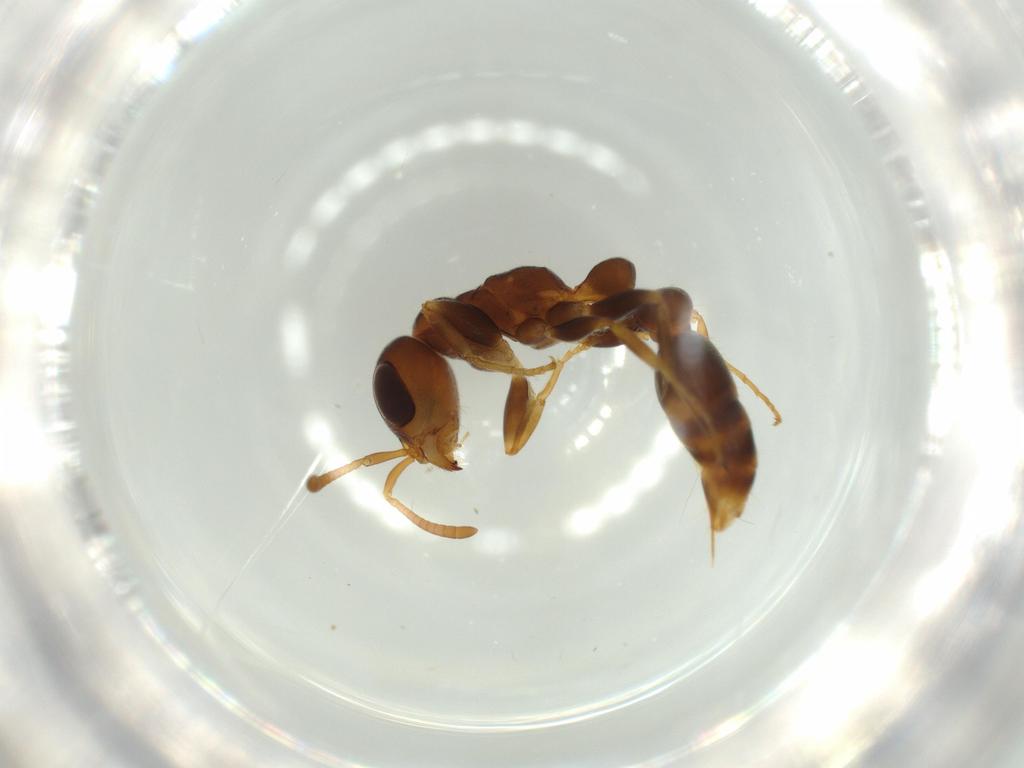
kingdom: Animalia
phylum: Arthropoda
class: Insecta
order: Hymenoptera
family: Formicidae
